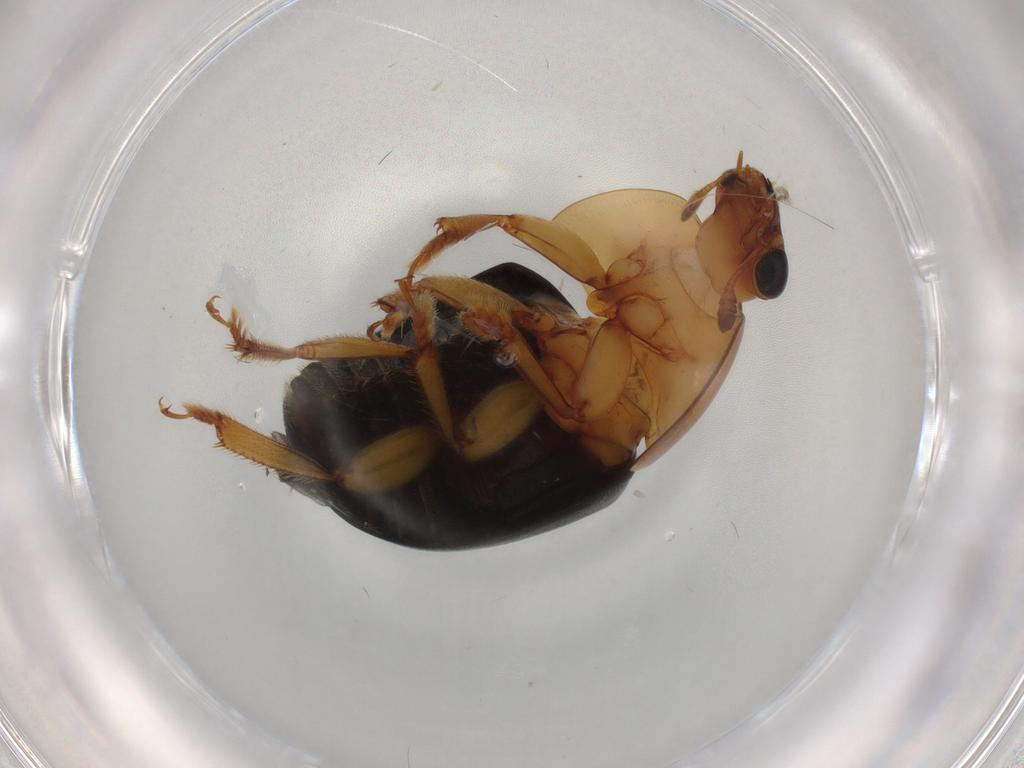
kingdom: Animalia
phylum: Arthropoda
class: Insecta
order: Coleoptera
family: Nitidulidae
